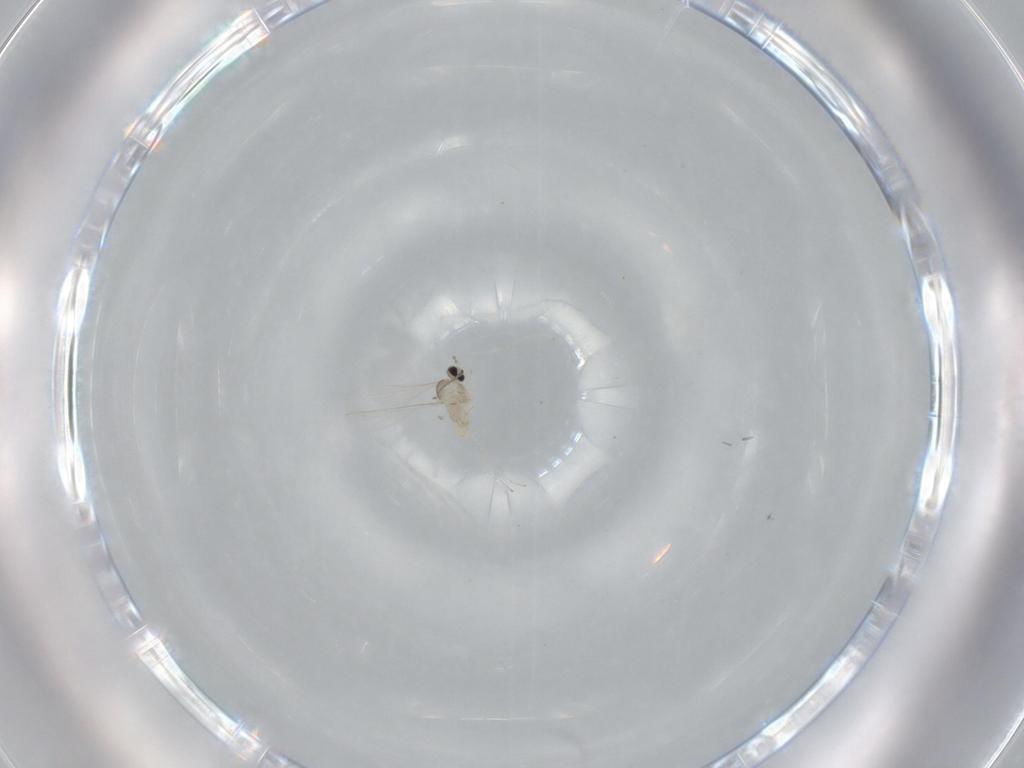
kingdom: Animalia
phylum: Arthropoda
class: Insecta
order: Diptera
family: Cecidomyiidae
